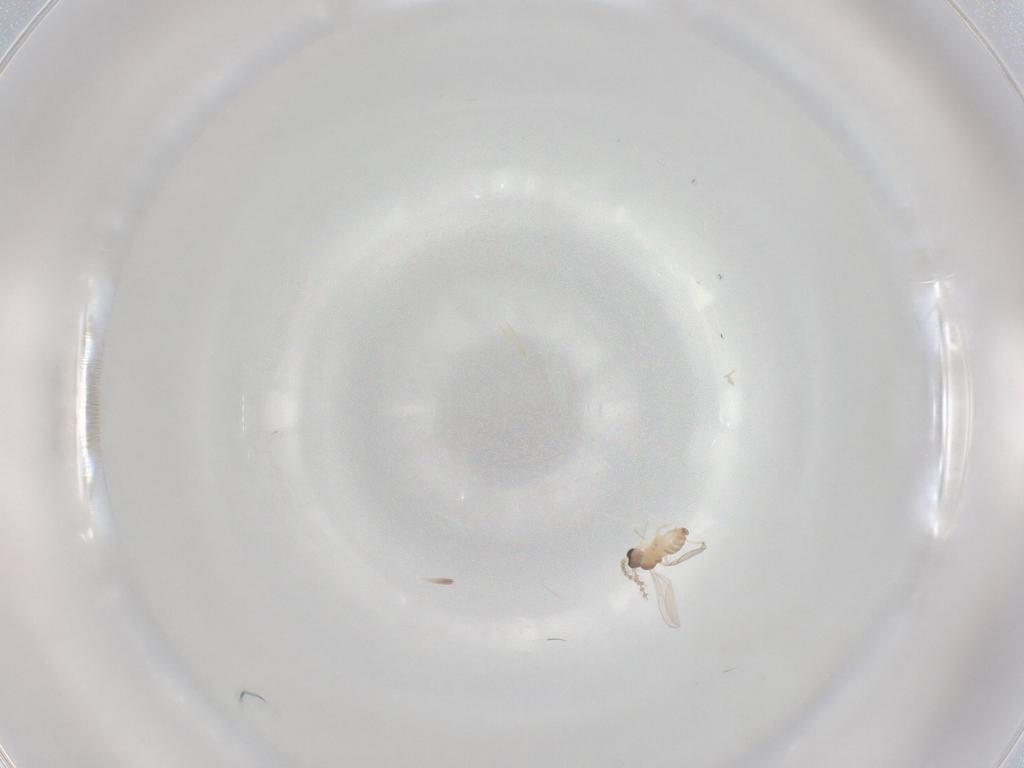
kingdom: Animalia
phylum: Arthropoda
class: Insecta
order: Diptera
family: Cecidomyiidae
